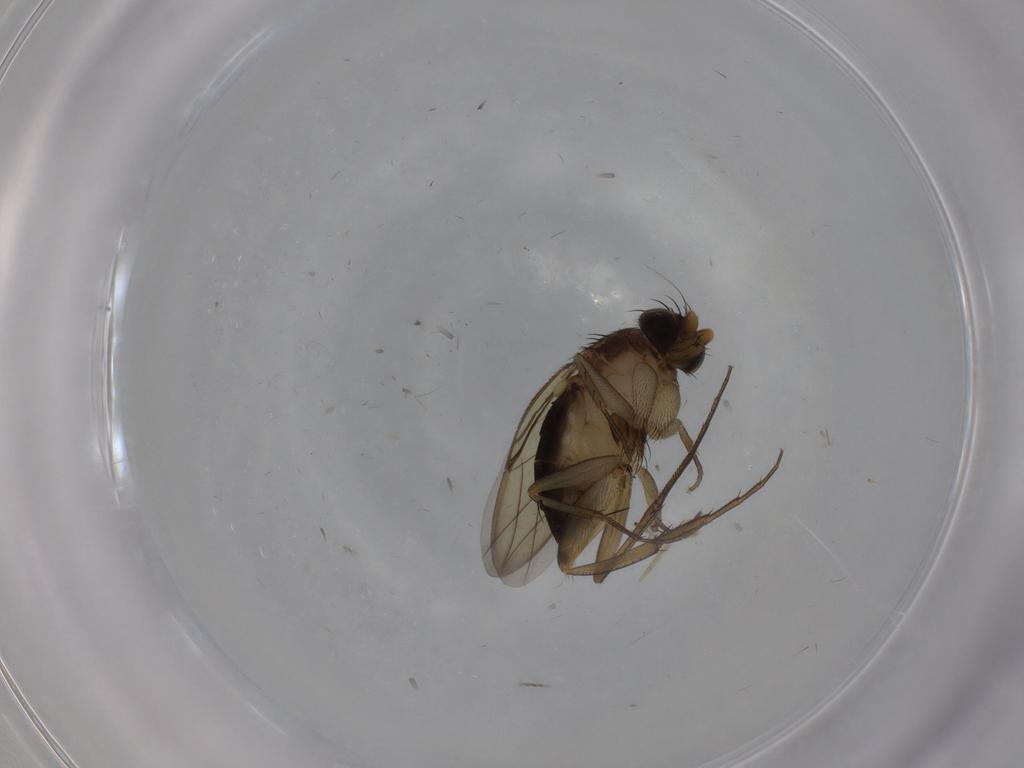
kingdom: Animalia
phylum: Arthropoda
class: Insecta
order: Diptera
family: Phoridae
